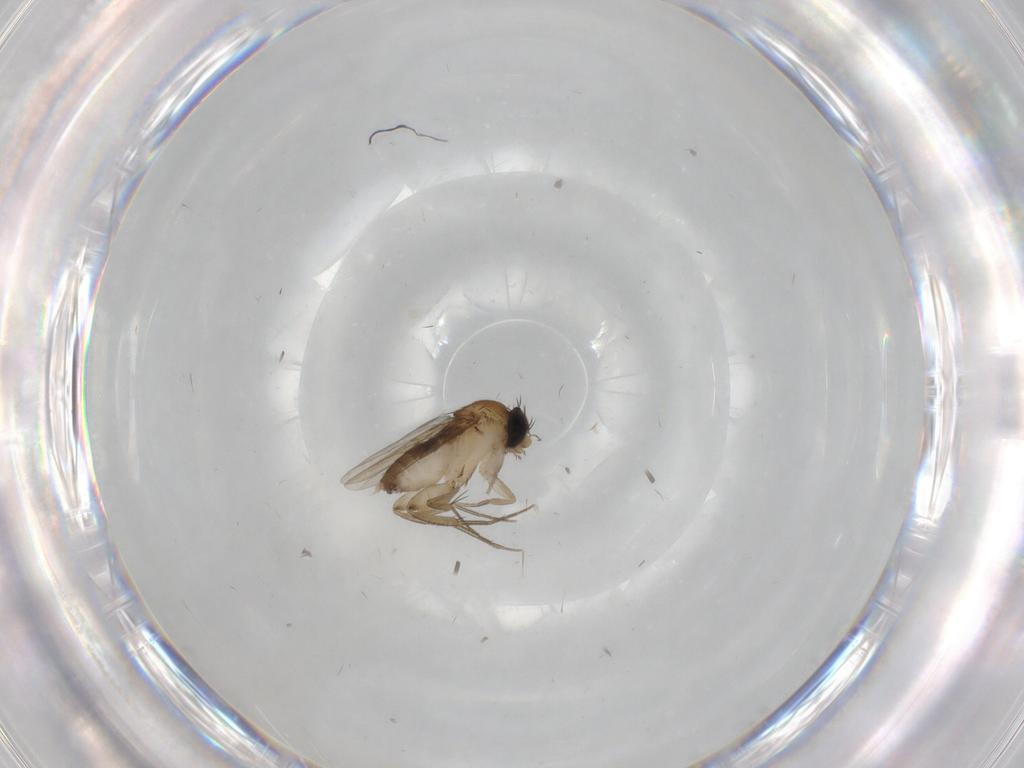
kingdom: Animalia
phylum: Arthropoda
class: Insecta
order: Diptera
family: Phoridae
